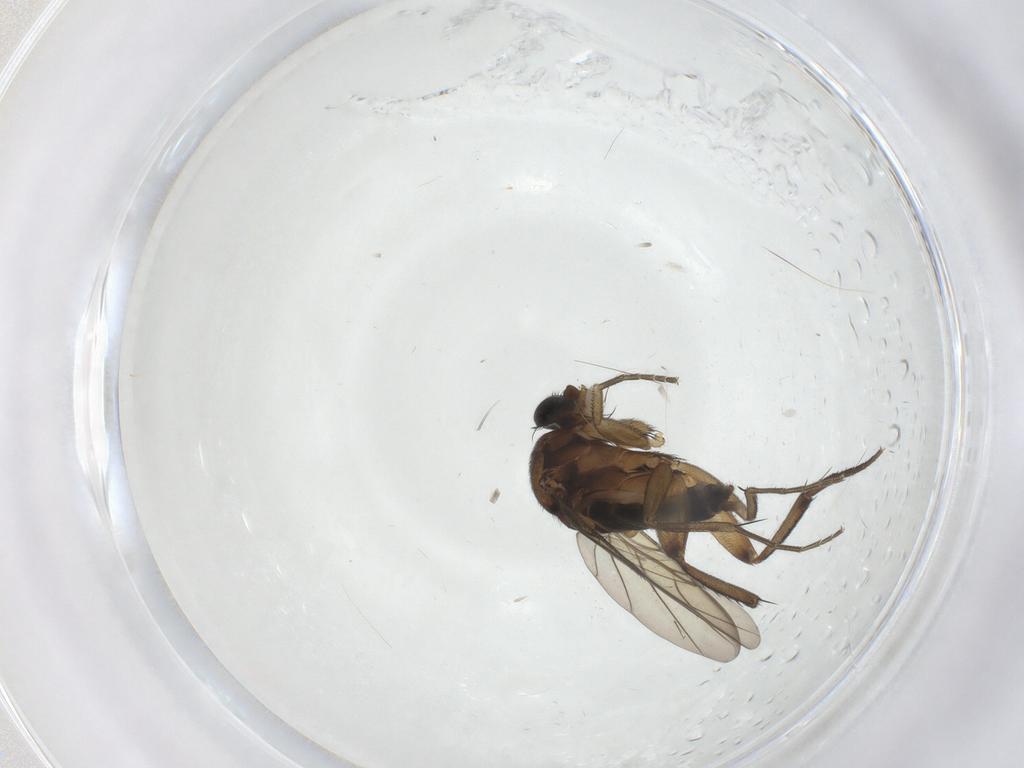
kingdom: Animalia
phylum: Arthropoda
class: Insecta
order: Diptera
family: Phoridae
